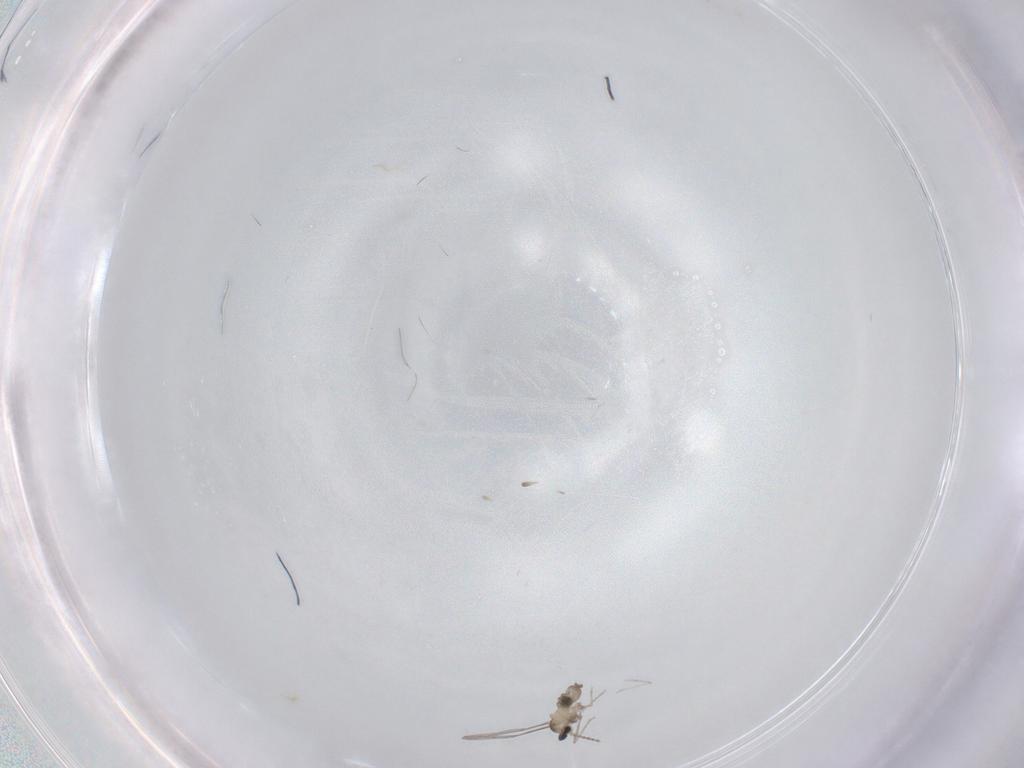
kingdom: Animalia
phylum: Arthropoda
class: Insecta
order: Diptera
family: Cecidomyiidae
